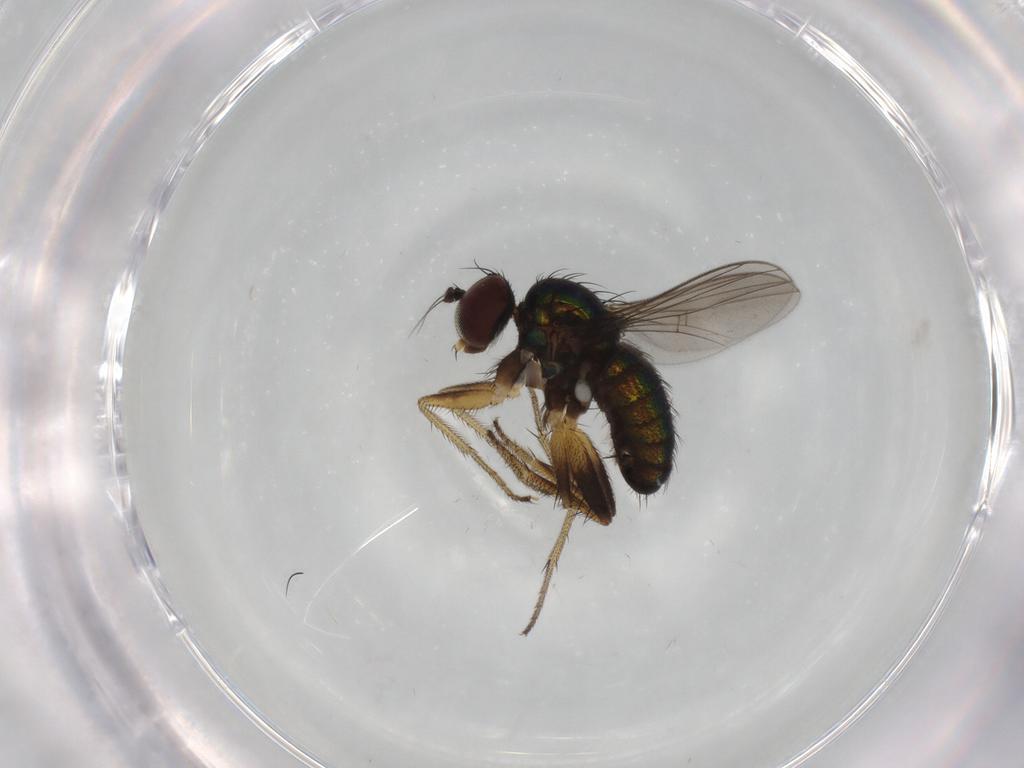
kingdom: Animalia
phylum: Arthropoda
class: Insecta
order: Diptera
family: Dolichopodidae
